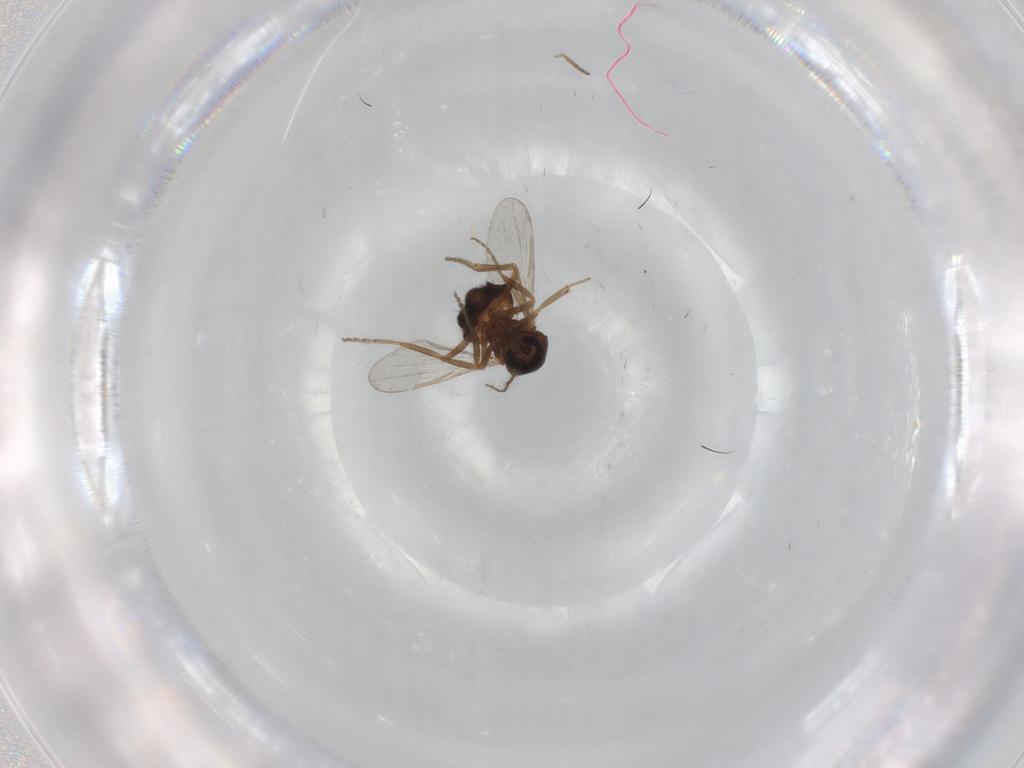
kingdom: Animalia
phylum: Arthropoda
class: Insecta
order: Diptera
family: Ceratopogonidae
